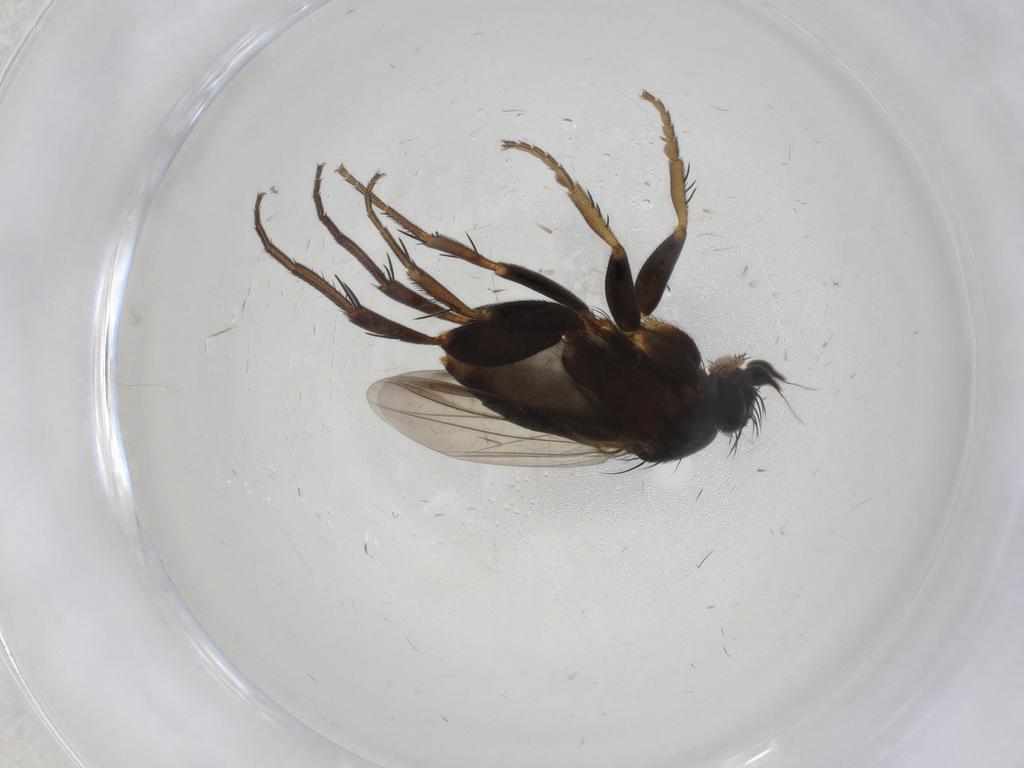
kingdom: Animalia
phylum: Arthropoda
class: Insecta
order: Diptera
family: Phoridae
